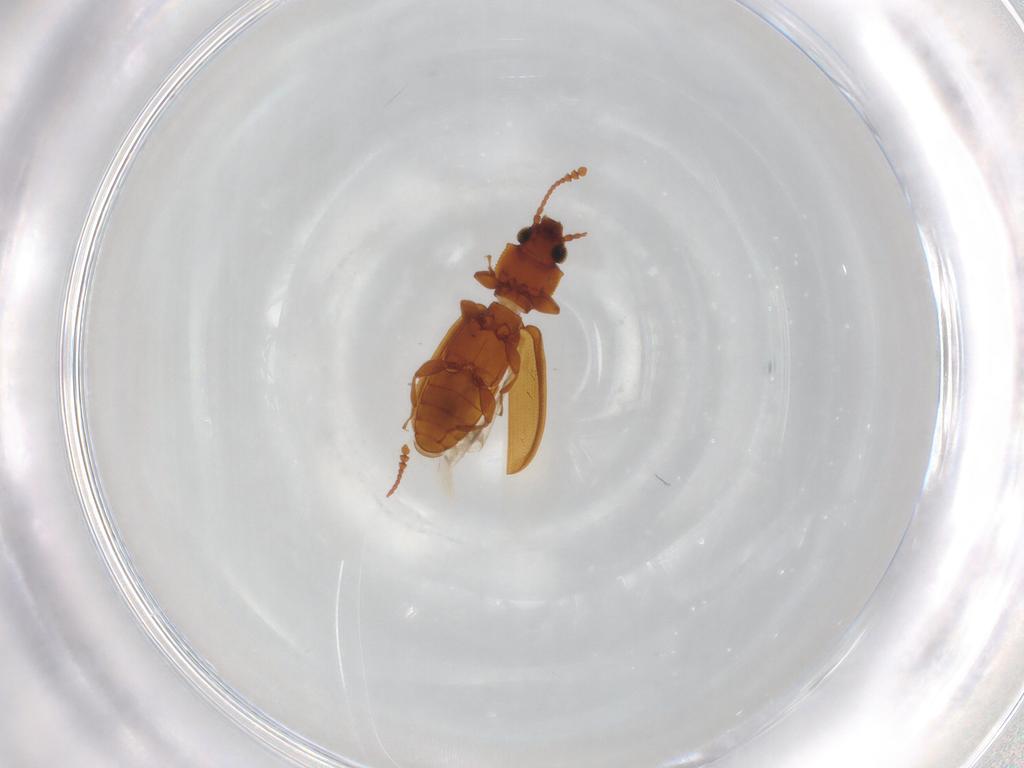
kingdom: Animalia
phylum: Arthropoda
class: Insecta
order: Coleoptera
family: Silvanidae
